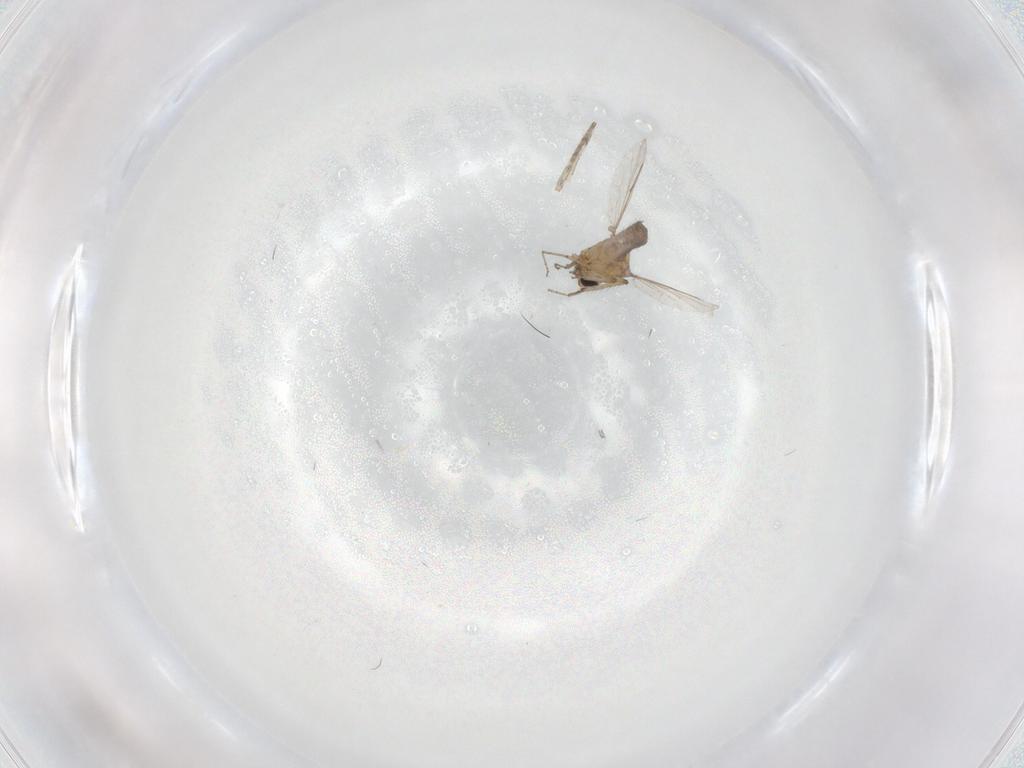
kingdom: Animalia
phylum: Arthropoda
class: Insecta
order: Diptera
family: Cecidomyiidae
